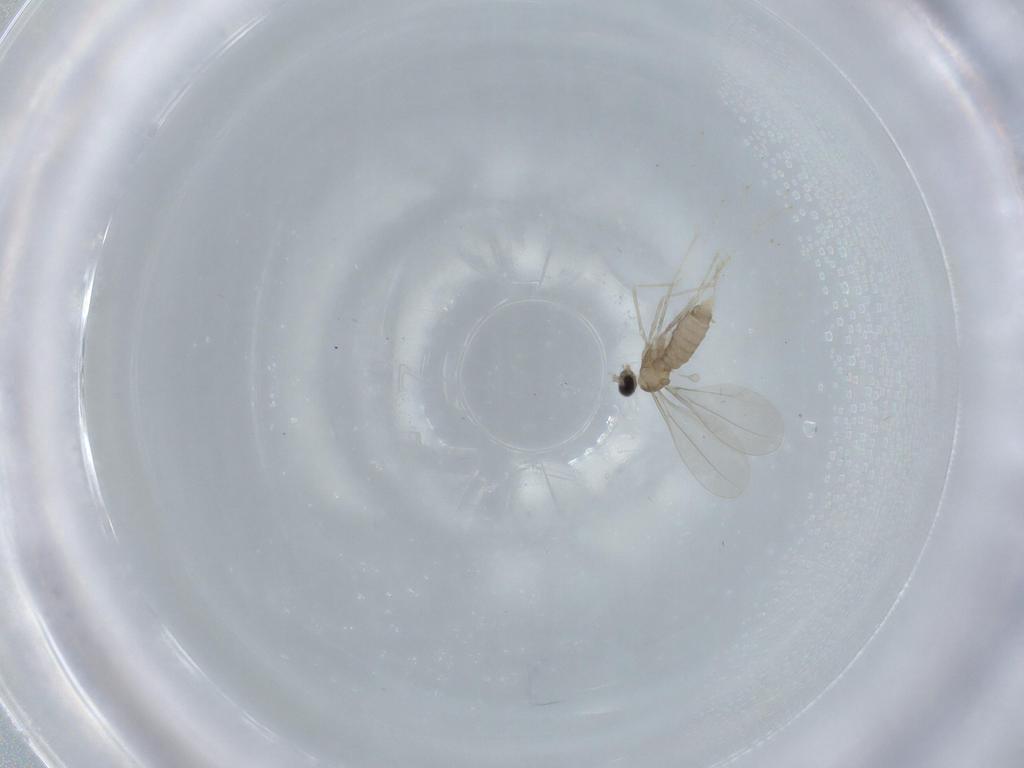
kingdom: Animalia
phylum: Arthropoda
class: Insecta
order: Diptera
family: Cecidomyiidae
